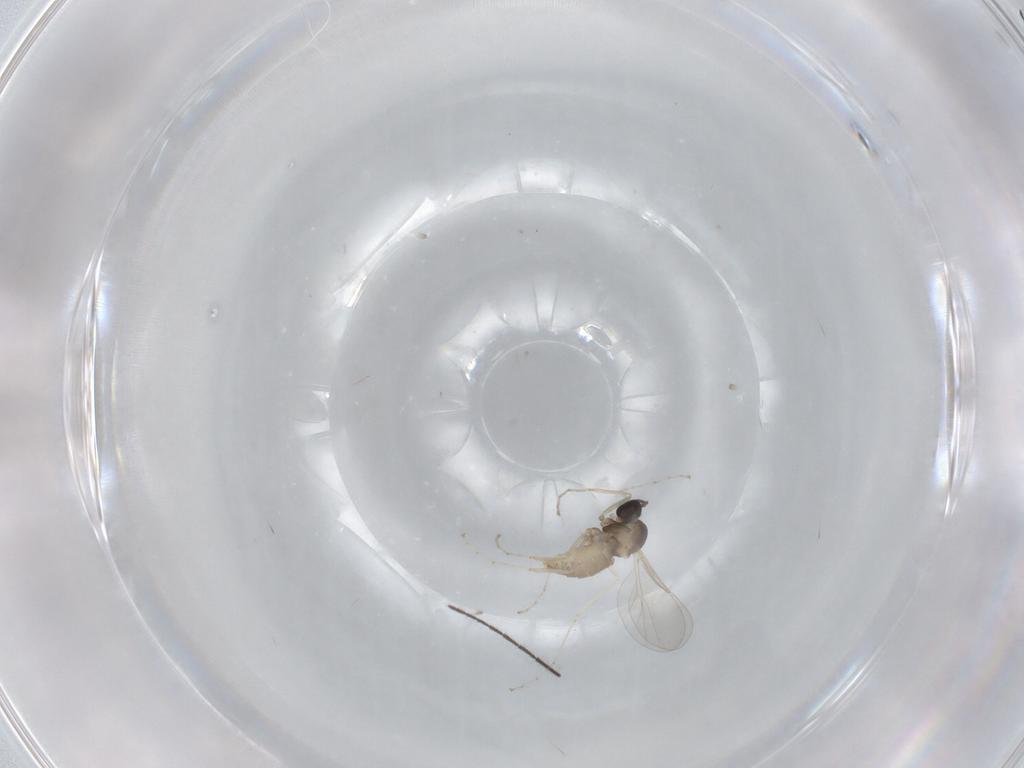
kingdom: Animalia
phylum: Arthropoda
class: Insecta
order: Diptera
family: Cecidomyiidae
